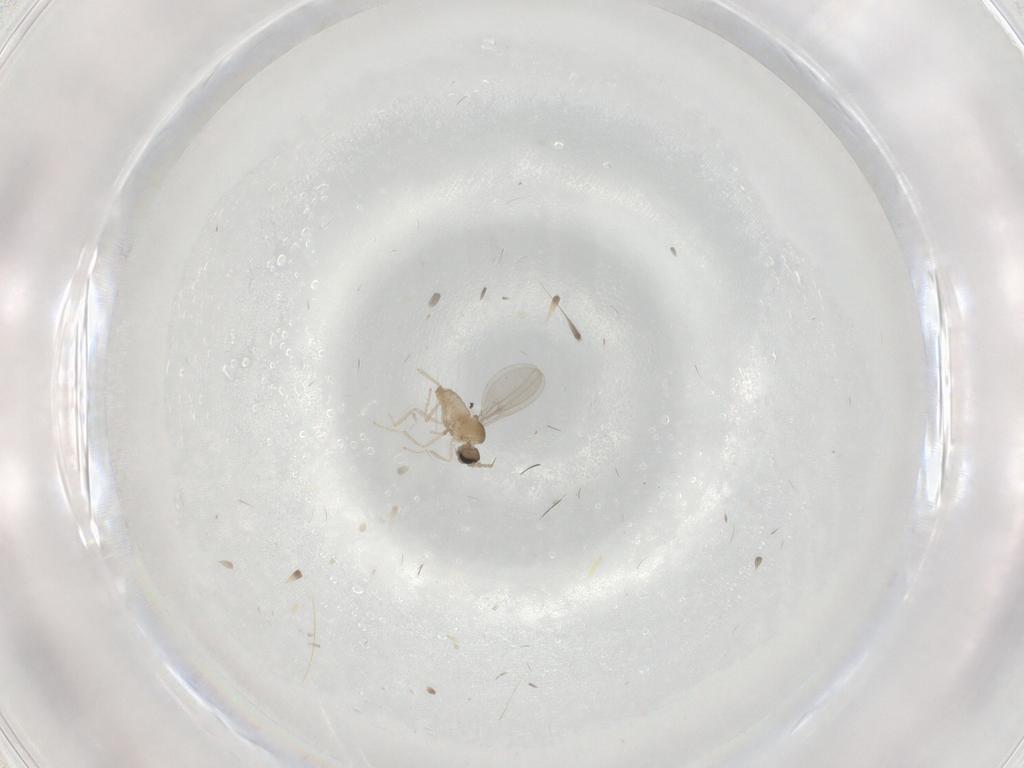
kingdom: Animalia
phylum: Arthropoda
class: Insecta
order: Diptera
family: Cecidomyiidae
